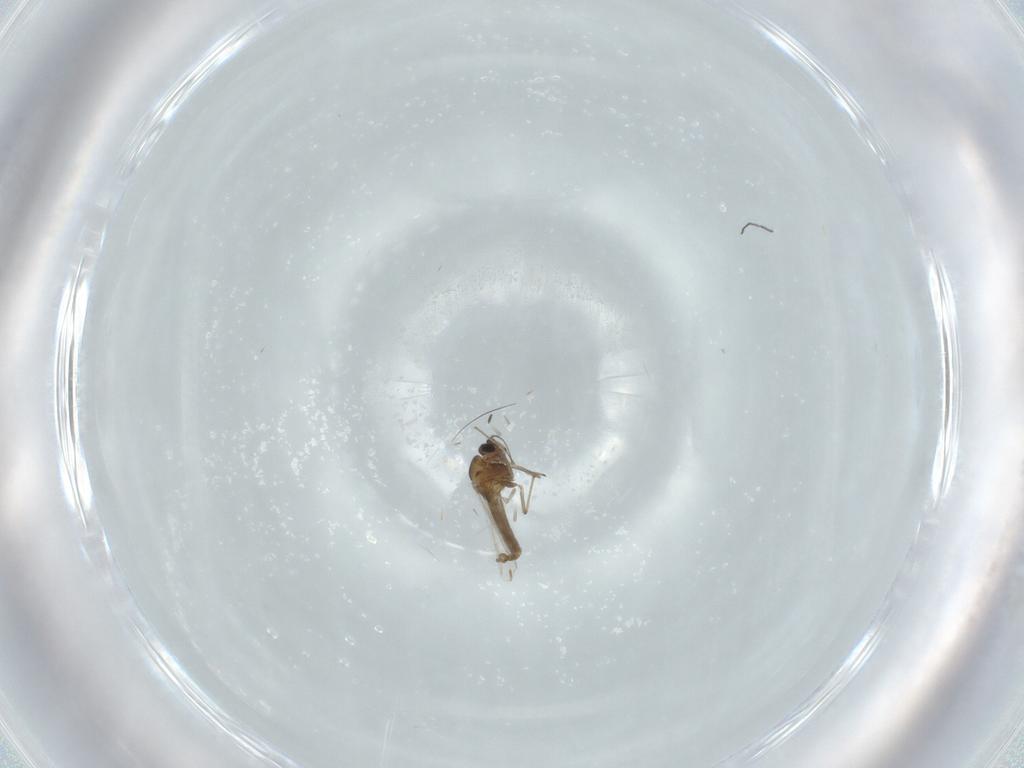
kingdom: Animalia
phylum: Arthropoda
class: Insecta
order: Diptera
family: Chironomidae
